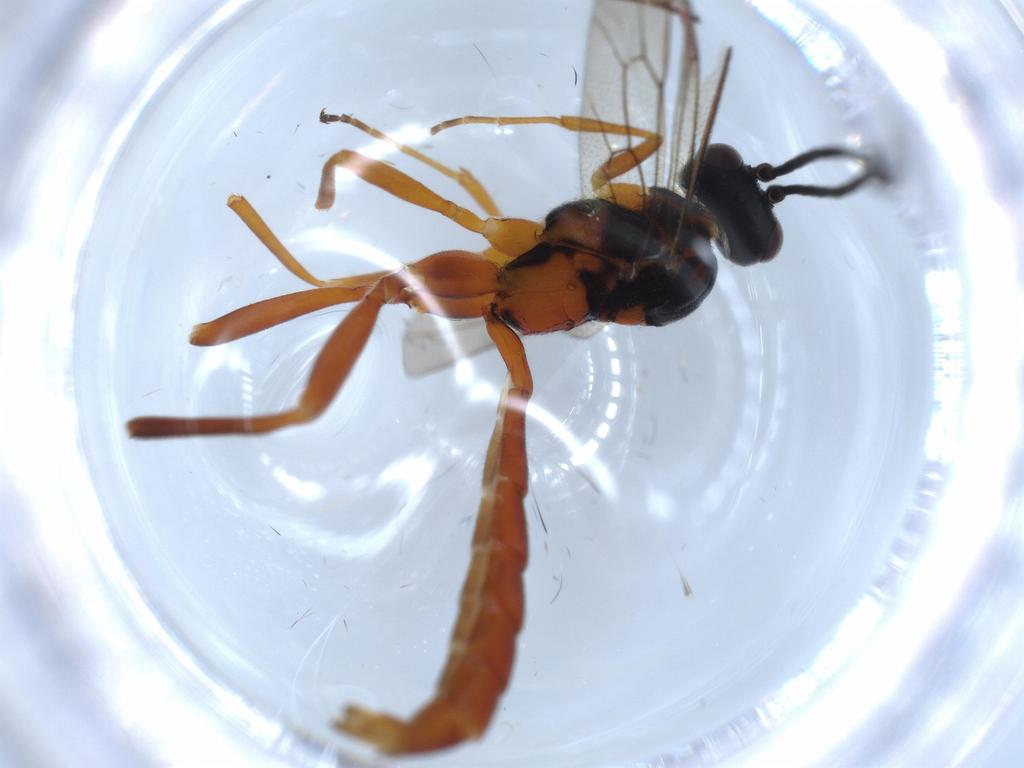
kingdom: Animalia
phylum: Arthropoda
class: Insecta
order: Hymenoptera
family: Ichneumonidae
